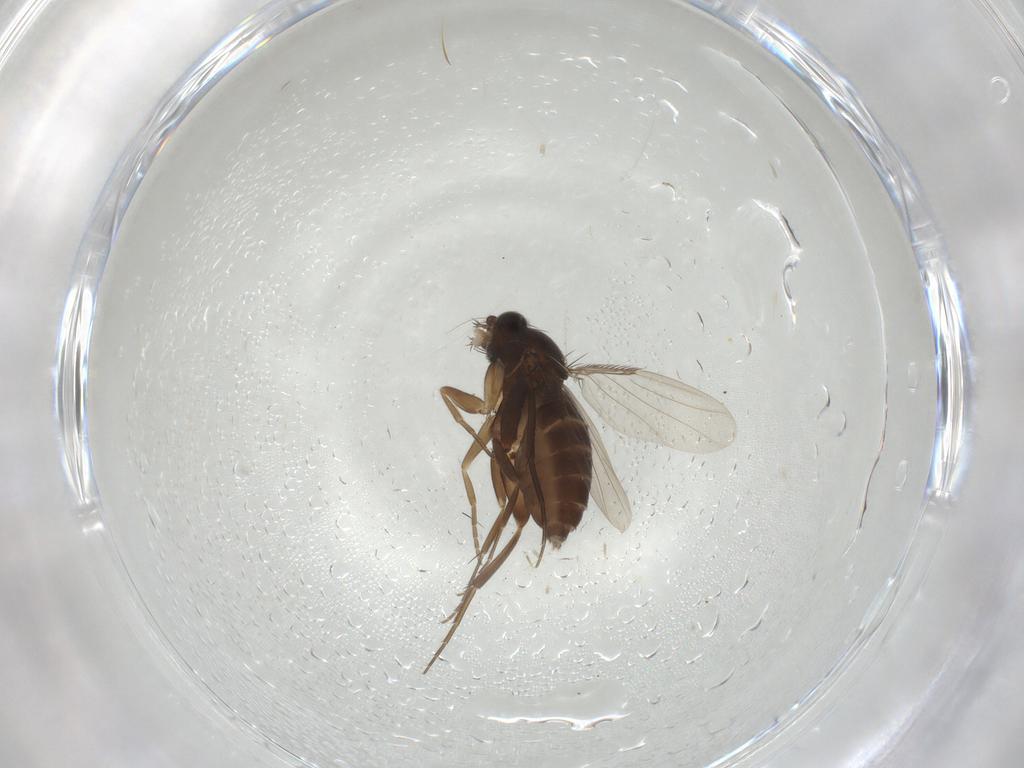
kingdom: Animalia
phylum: Arthropoda
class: Insecta
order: Diptera
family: Phoridae
